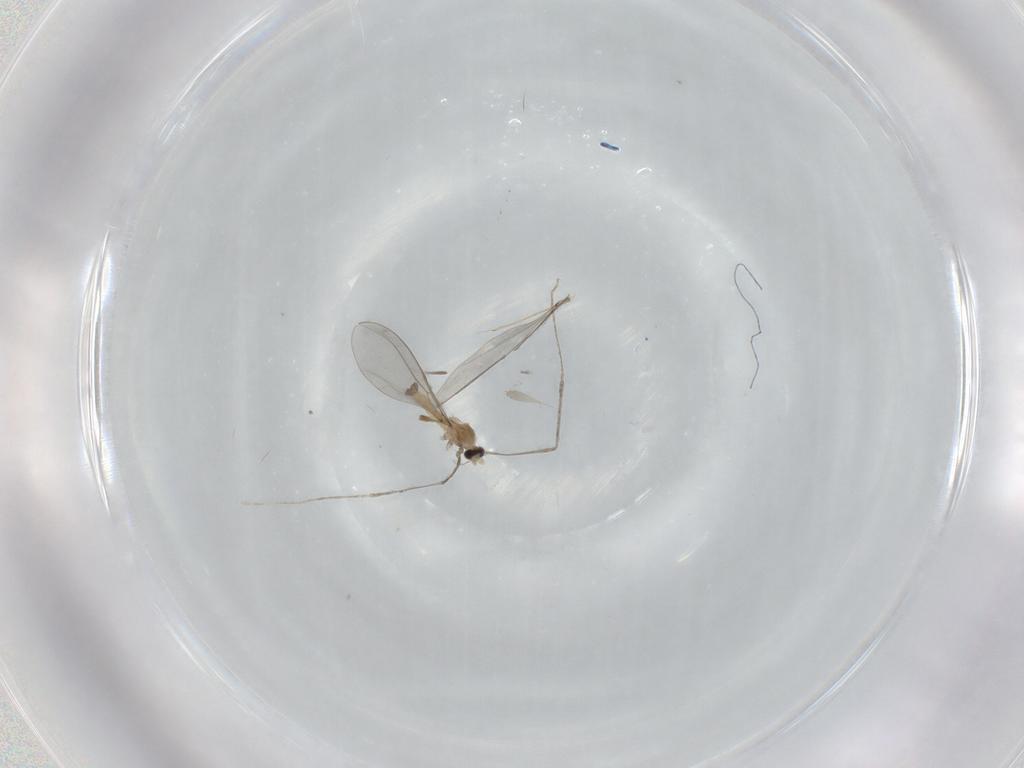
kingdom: Animalia
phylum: Arthropoda
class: Insecta
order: Diptera
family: Cecidomyiidae
